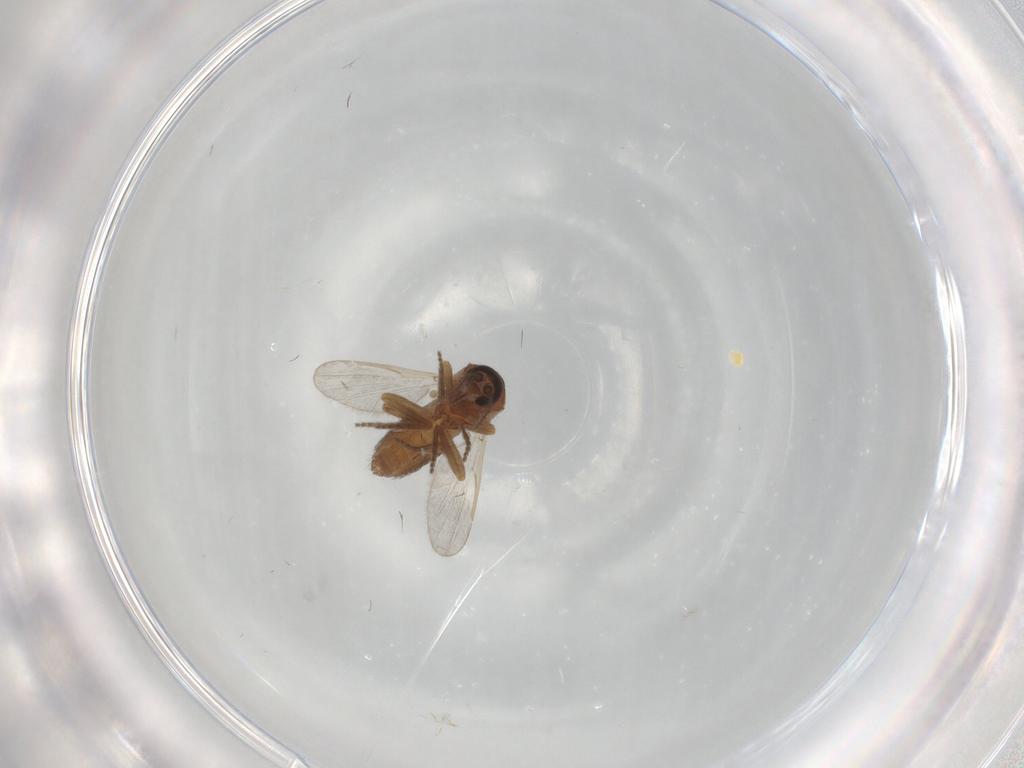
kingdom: Animalia
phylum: Arthropoda
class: Insecta
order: Diptera
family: Ceratopogonidae
